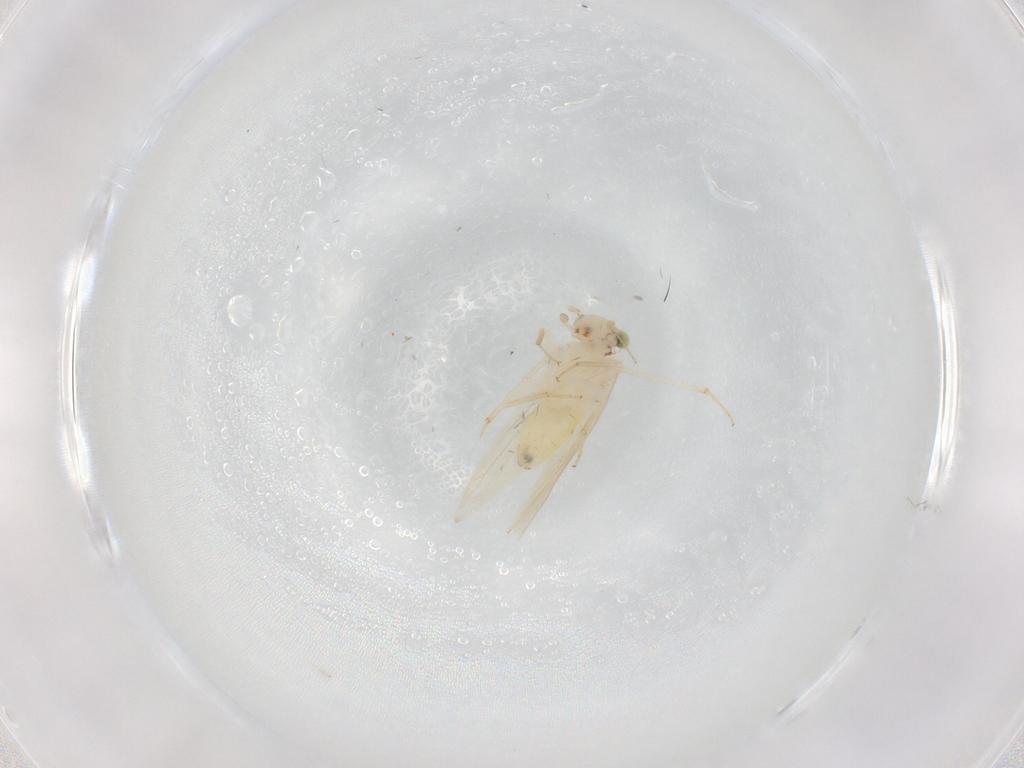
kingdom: Animalia
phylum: Arthropoda
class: Insecta
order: Psocodea
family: Lepidopsocidae
